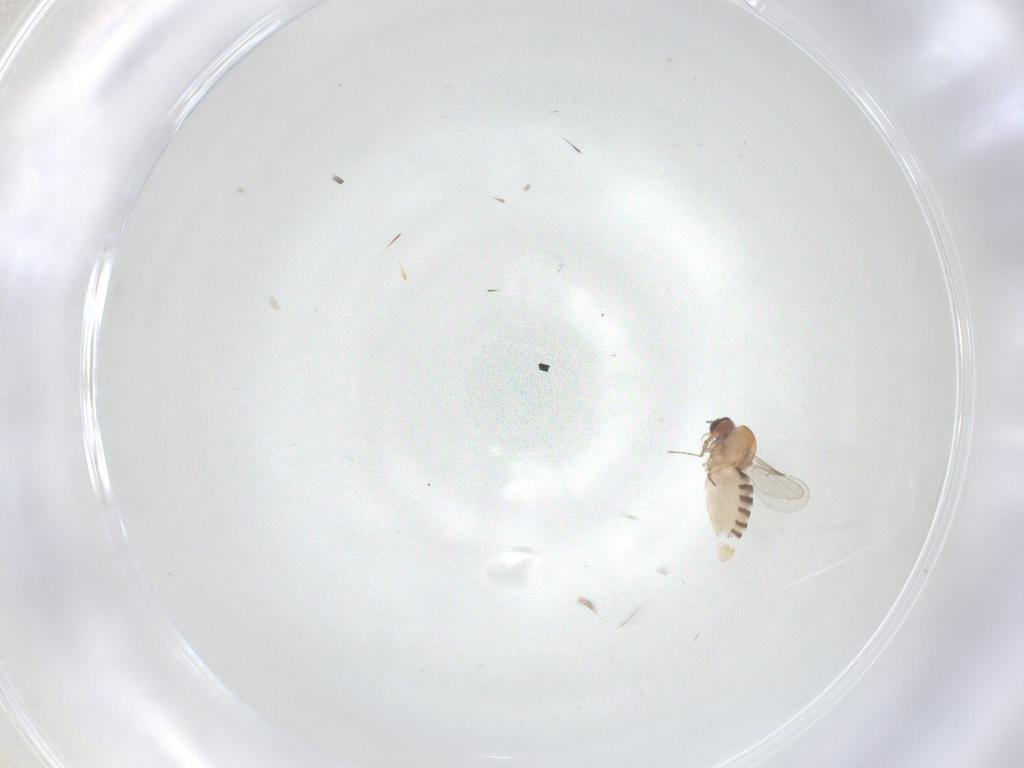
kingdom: Animalia
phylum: Arthropoda
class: Insecta
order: Diptera
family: Ceratopogonidae
